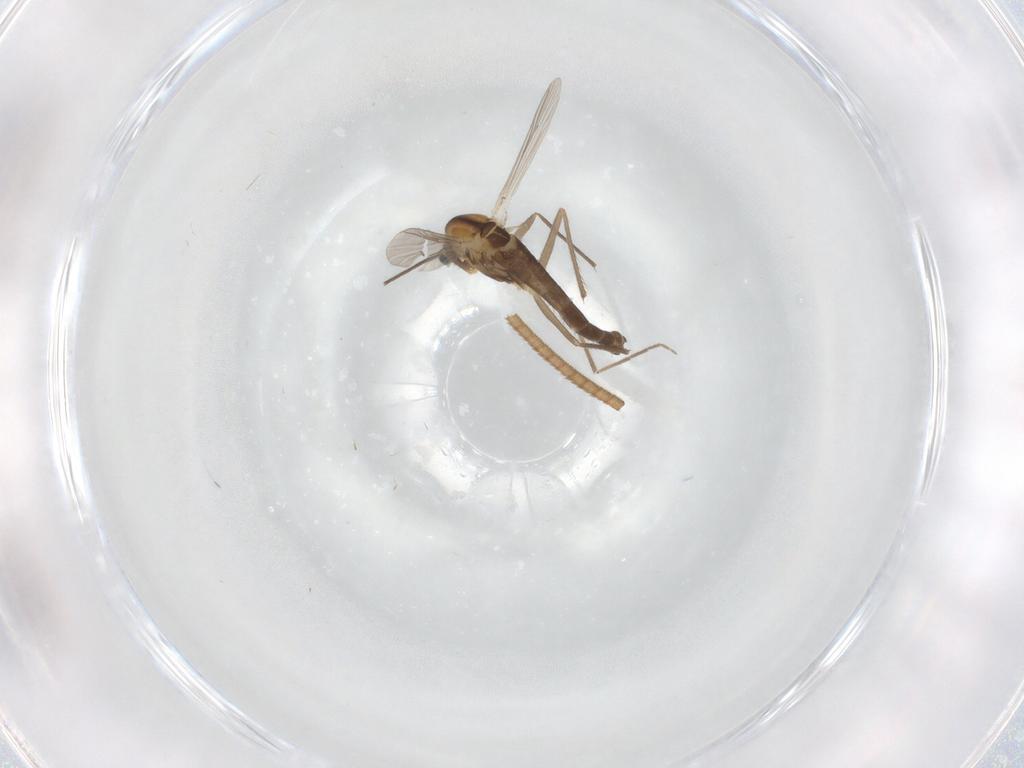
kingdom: Animalia
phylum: Arthropoda
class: Insecta
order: Diptera
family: Chironomidae
